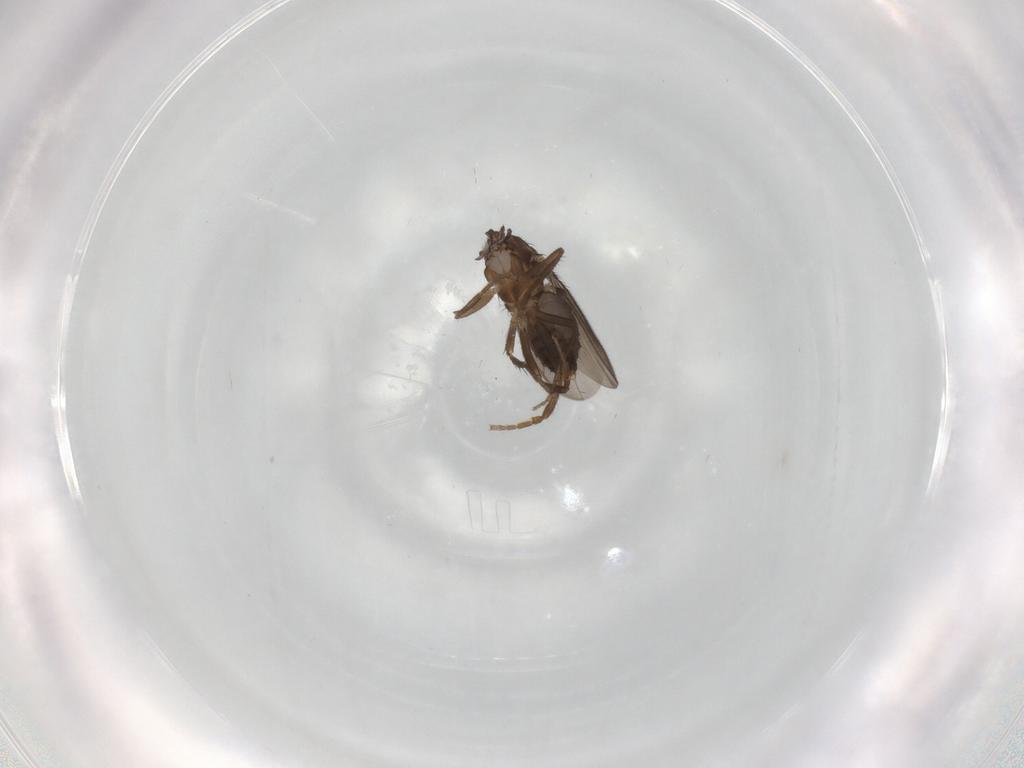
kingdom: Animalia
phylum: Arthropoda
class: Insecta
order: Diptera
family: Sphaeroceridae
